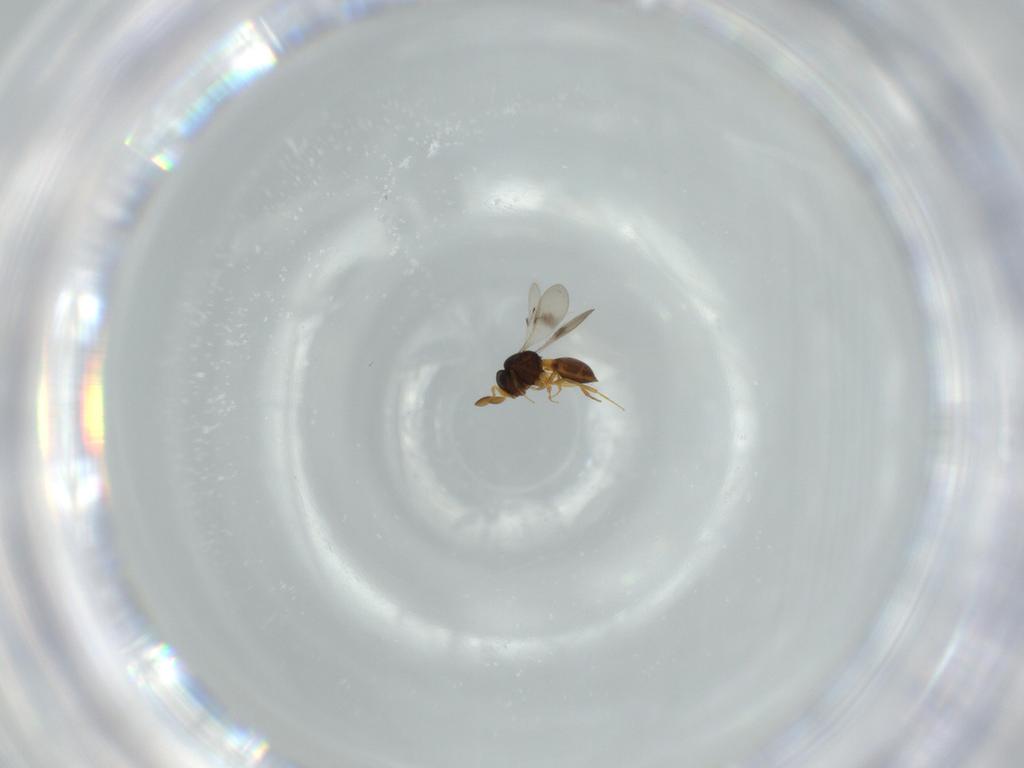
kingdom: Animalia
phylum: Arthropoda
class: Insecta
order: Hymenoptera
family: Scelionidae
